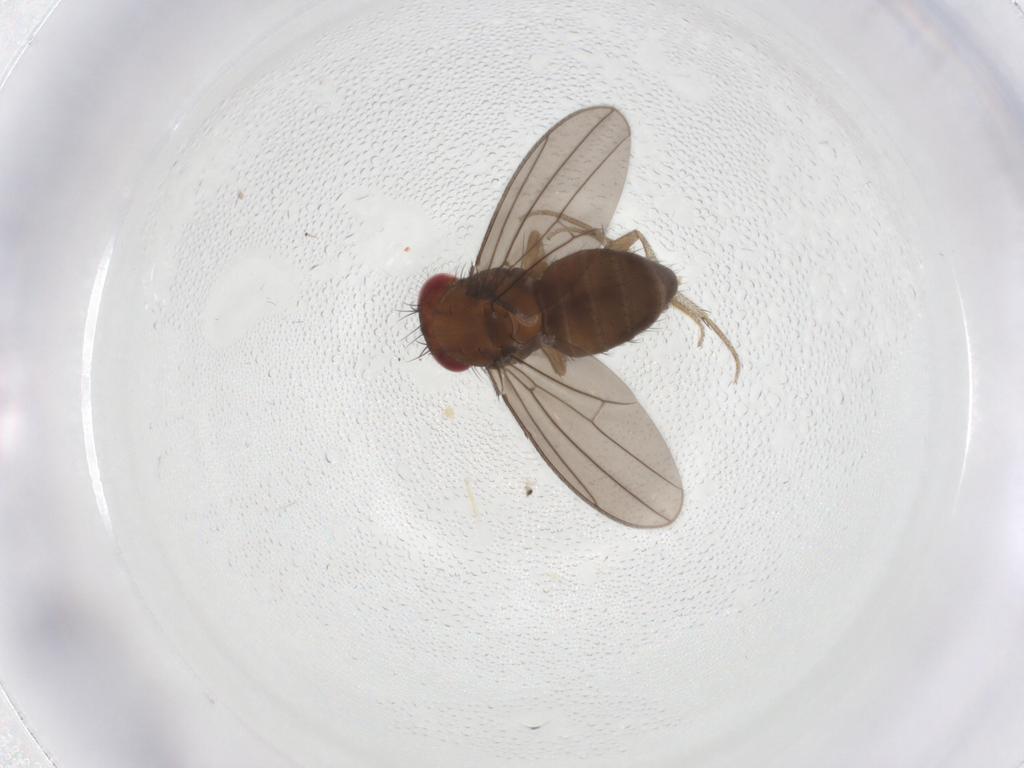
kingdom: Animalia
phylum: Arthropoda
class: Insecta
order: Diptera
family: Drosophilidae
